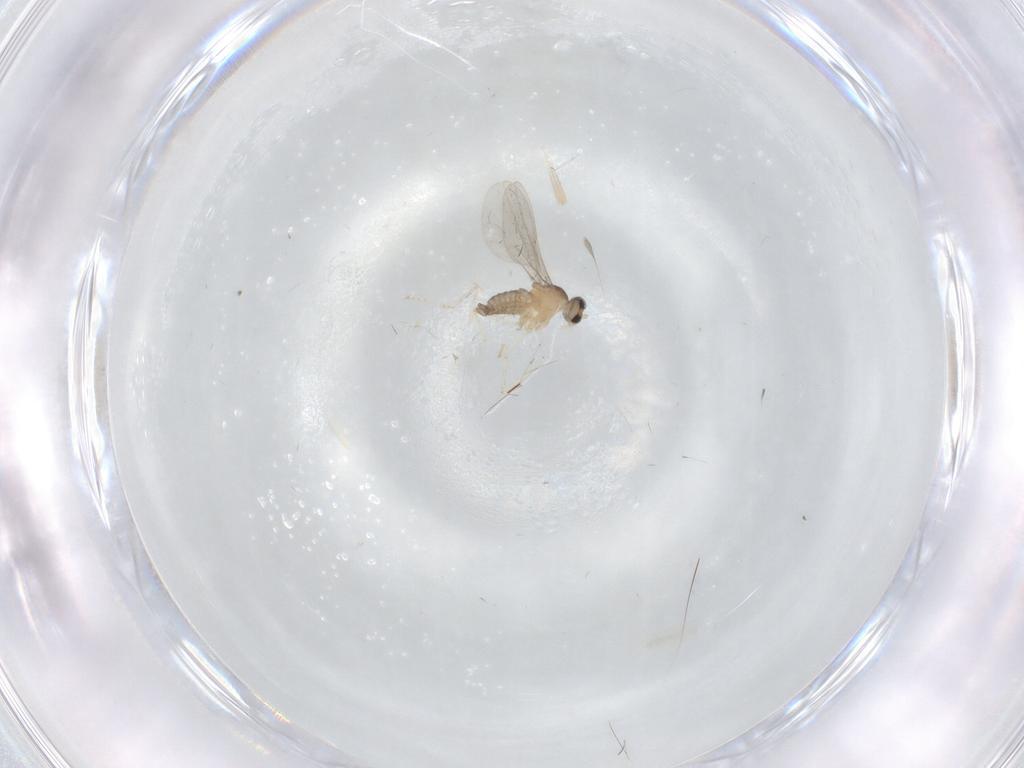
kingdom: Animalia
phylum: Arthropoda
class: Insecta
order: Diptera
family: Cecidomyiidae
